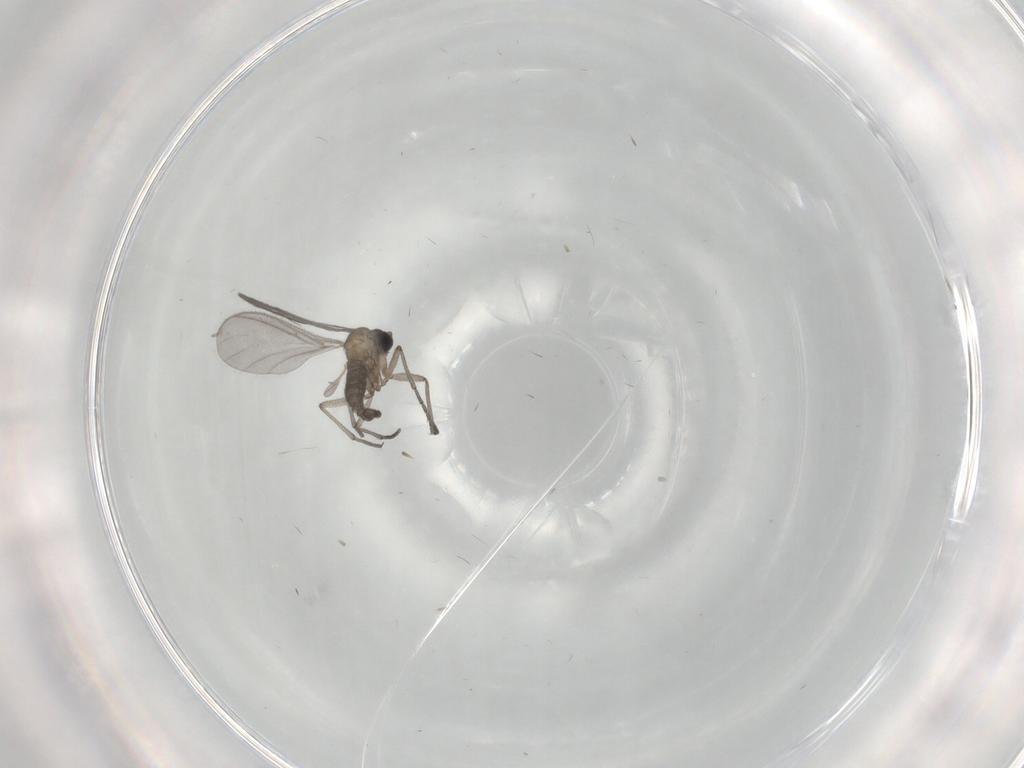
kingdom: Animalia
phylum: Arthropoda
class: Insecta
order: Diptera
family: Sciaridae
